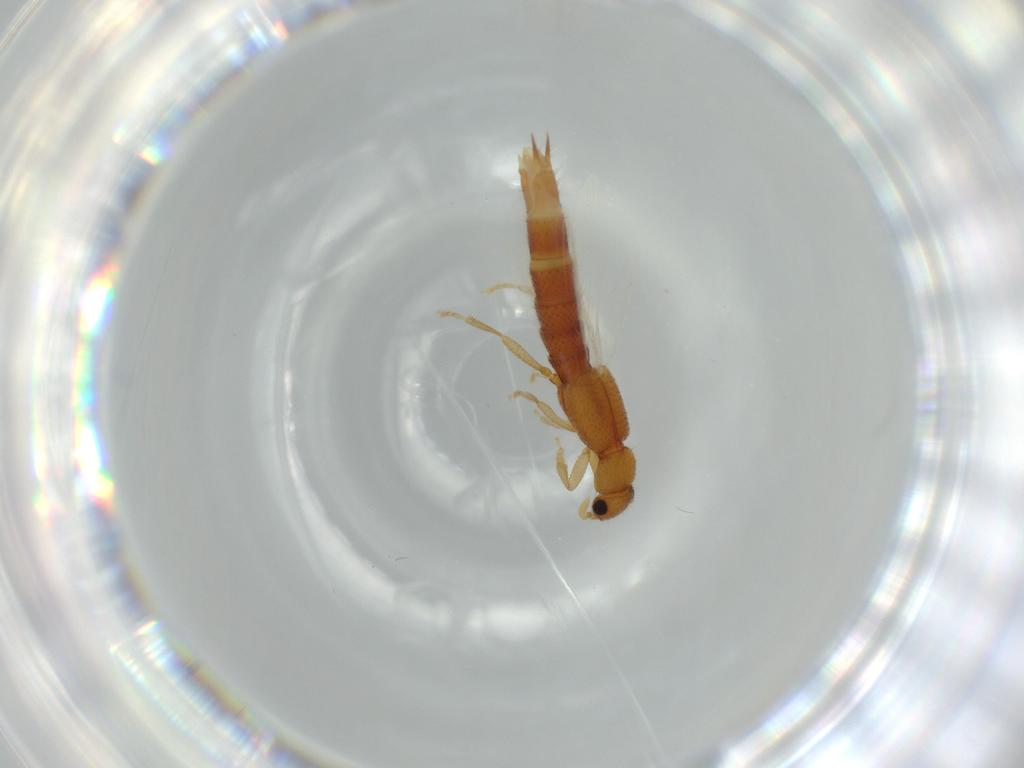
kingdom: Animalia
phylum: Arthropoda
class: Insecta
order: Coleoptera
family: Staphylinidae
